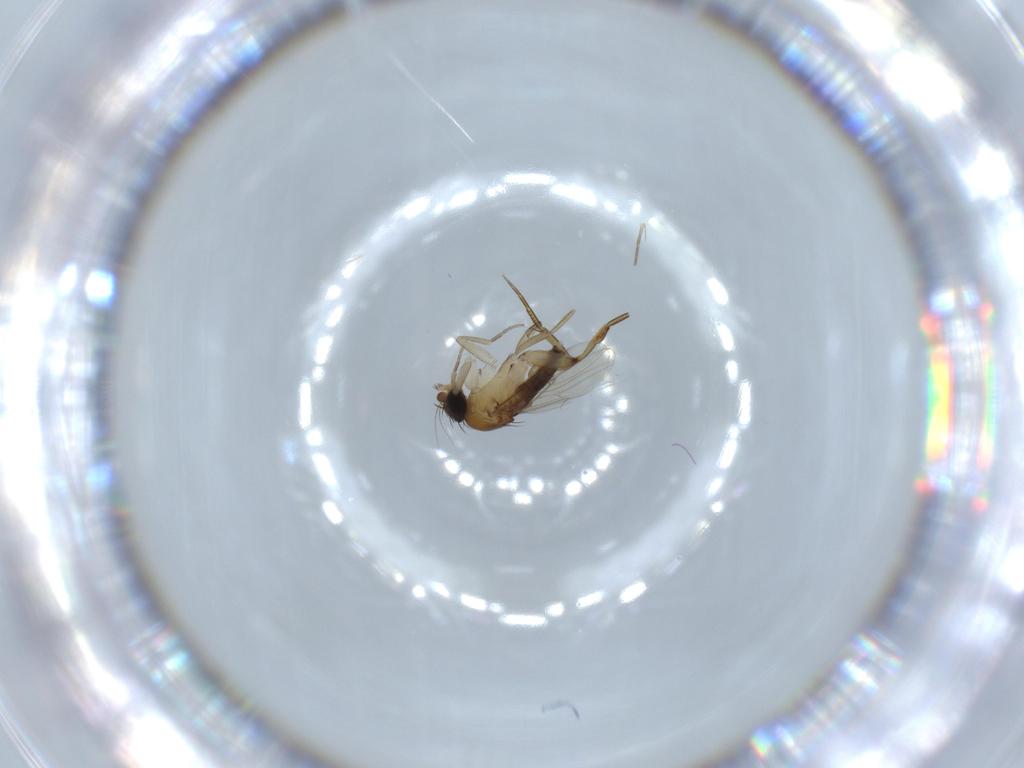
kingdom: Animalia
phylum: Arthropoda
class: Insecta
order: Diptera
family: Phoridae
